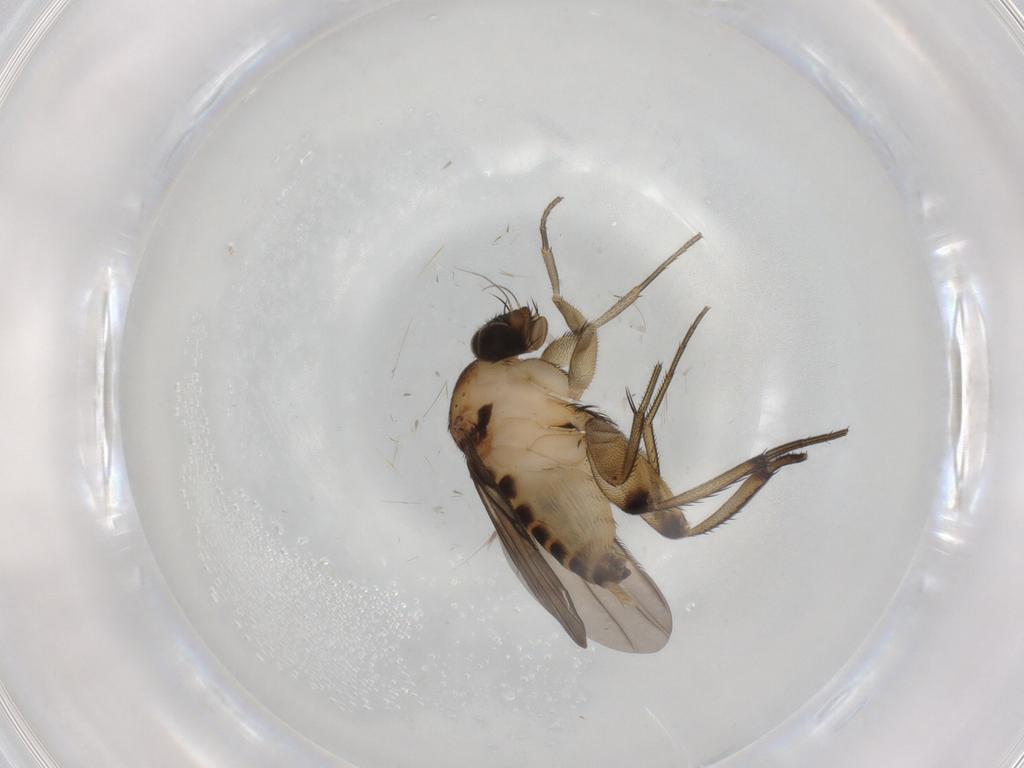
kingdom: Animalia
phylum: Arthropoda
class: Insecta
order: Diptera
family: Phoridae
